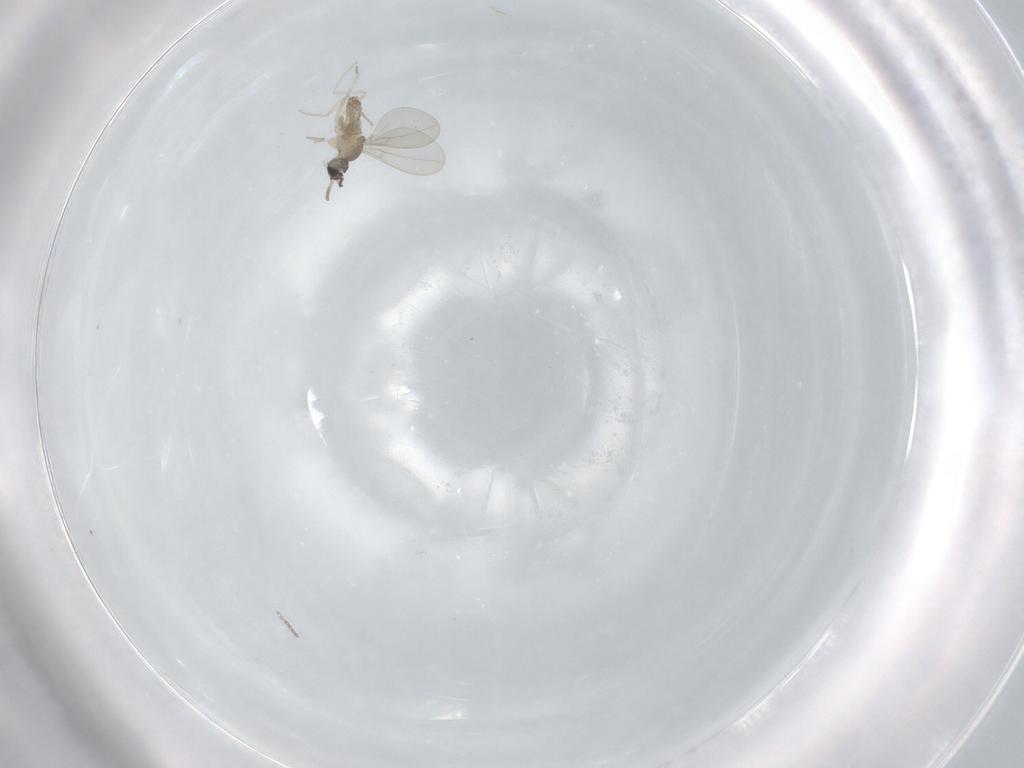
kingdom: Animalia
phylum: Arthropoda
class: Insecta
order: Diptera
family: Cecidomyiidae
